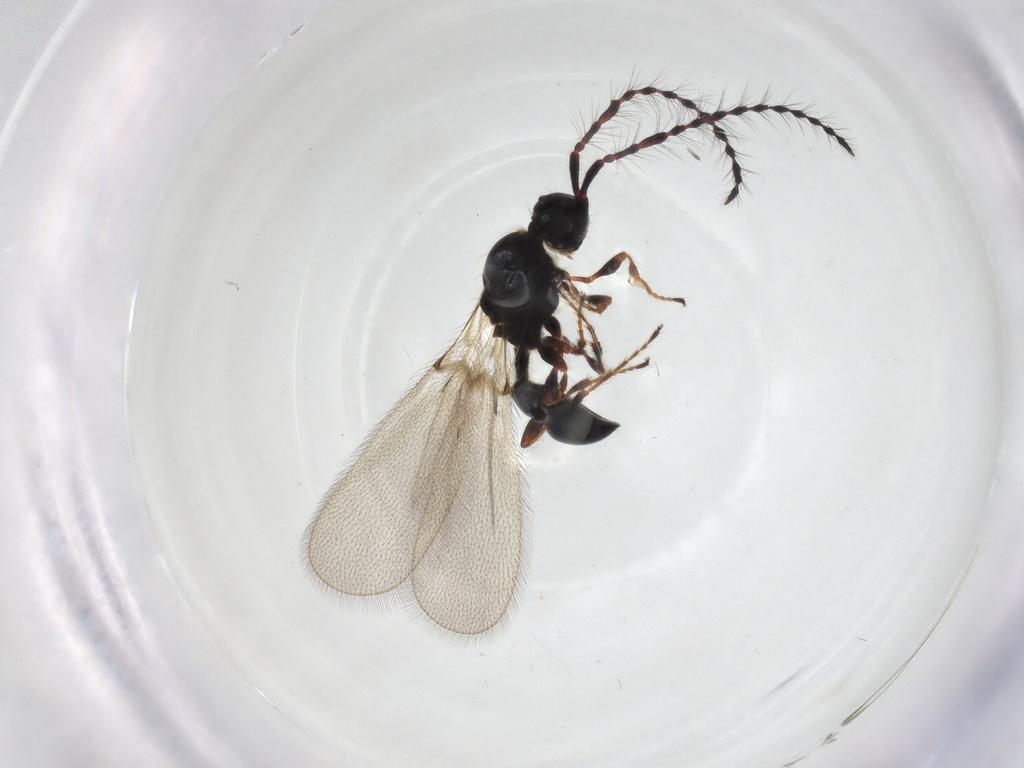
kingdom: Animalia
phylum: Arthropoda
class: Insecta
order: Hymenoptera
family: Diapriidae
